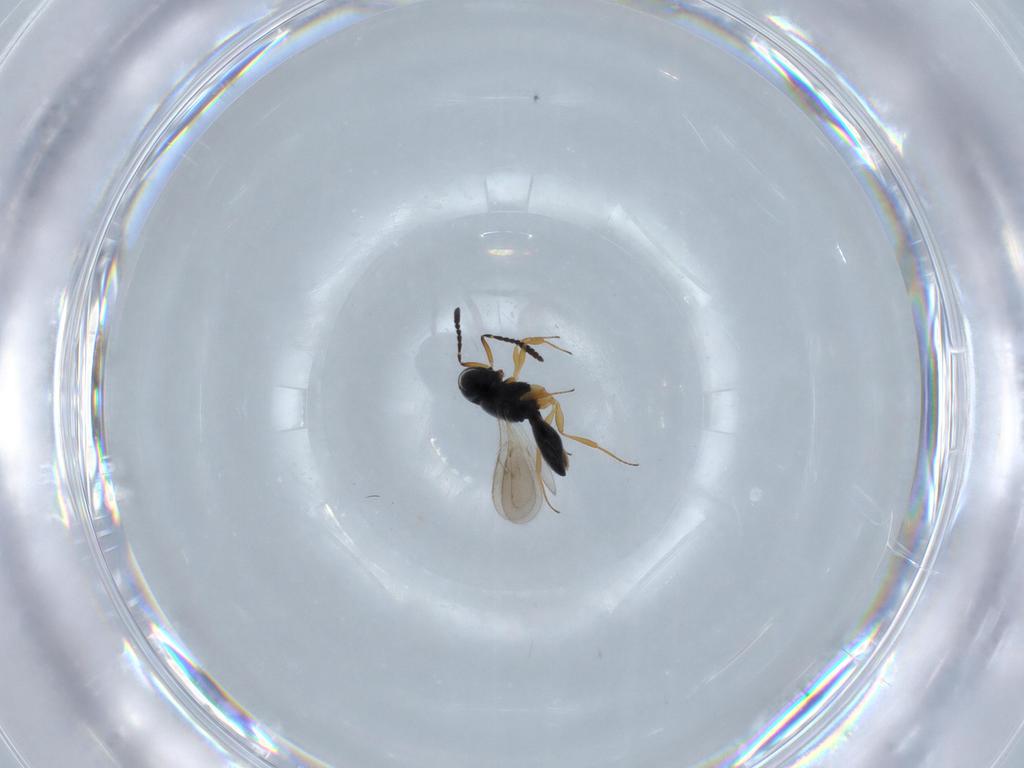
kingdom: Animalia
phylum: Arthropoda
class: Insecta
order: Hymenoptera
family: Scelionidae
